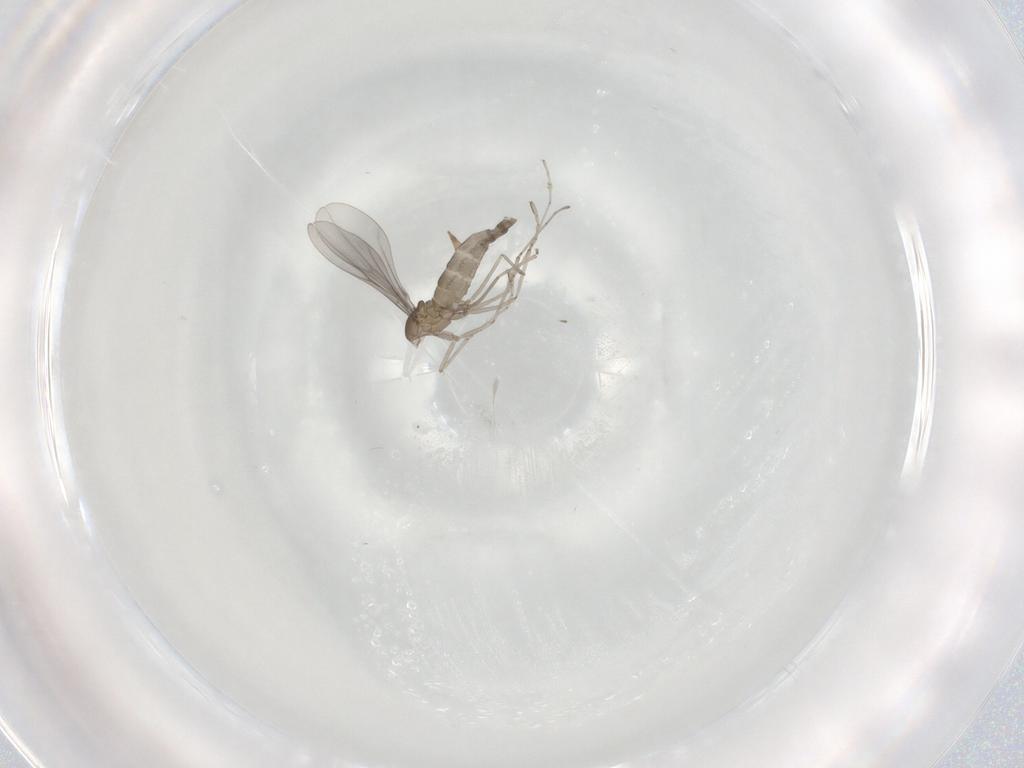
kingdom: Animalia
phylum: Arthropoda
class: Insecta
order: Diptera
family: Cecidomyiidae
